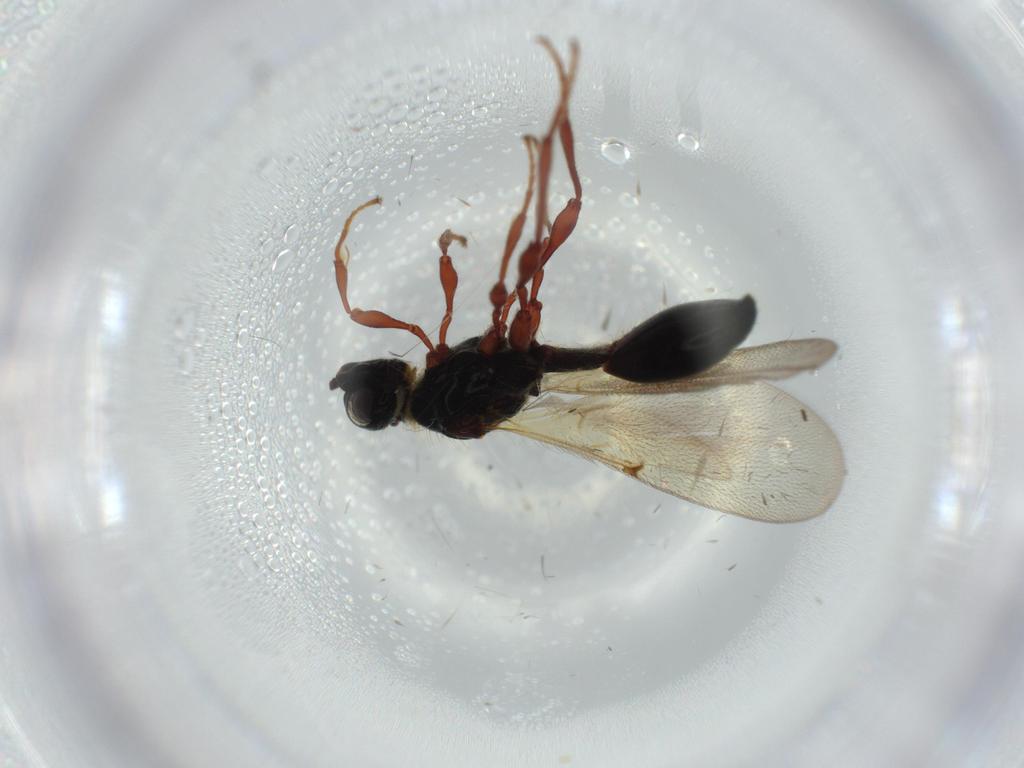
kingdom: Animalia
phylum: Arthropoda
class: Insecta
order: Hymenoptera
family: Diapriidae
